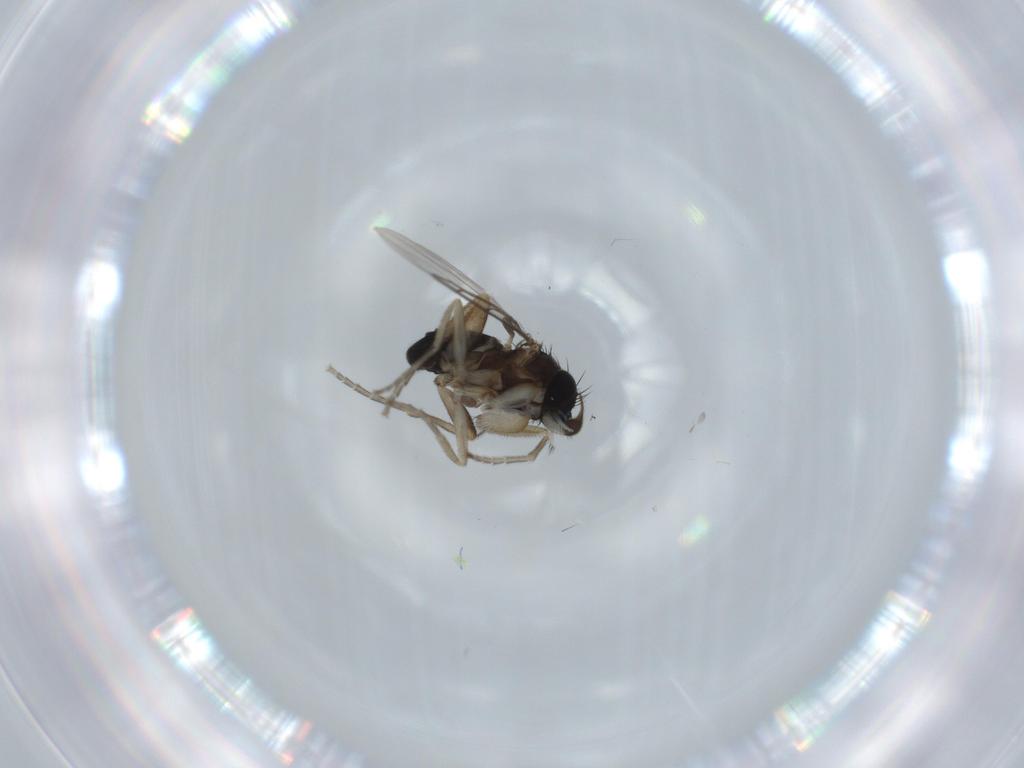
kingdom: Animalia
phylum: Arthropoda
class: Insecta
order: Diptera
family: Phoridae
